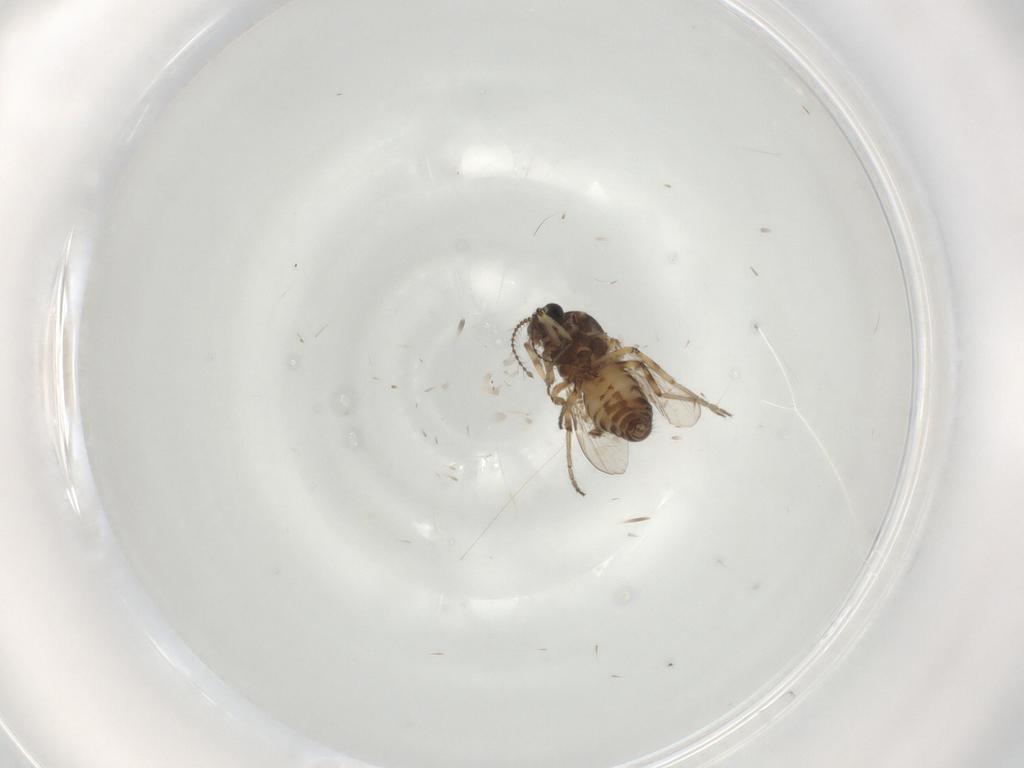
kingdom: Animalia
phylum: Arthropoda
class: Insecta
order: Diptera
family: Ceratopogonidae
